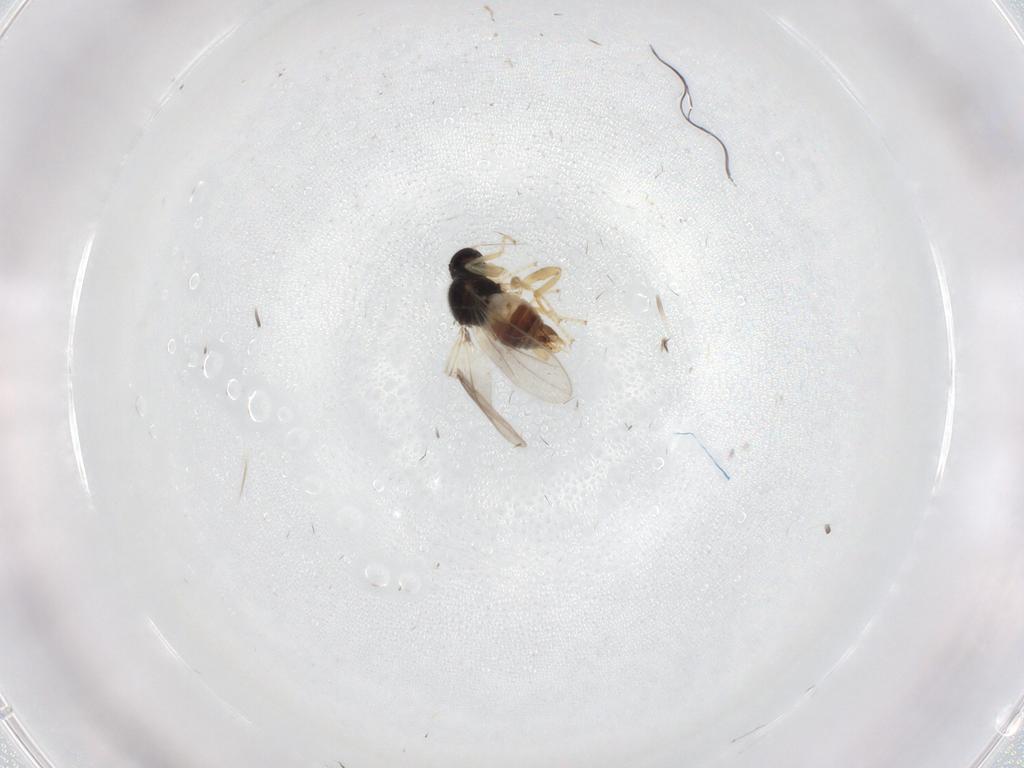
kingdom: Animalia
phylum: Arthropoda
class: Insecta
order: Diptera
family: Hybotidae
